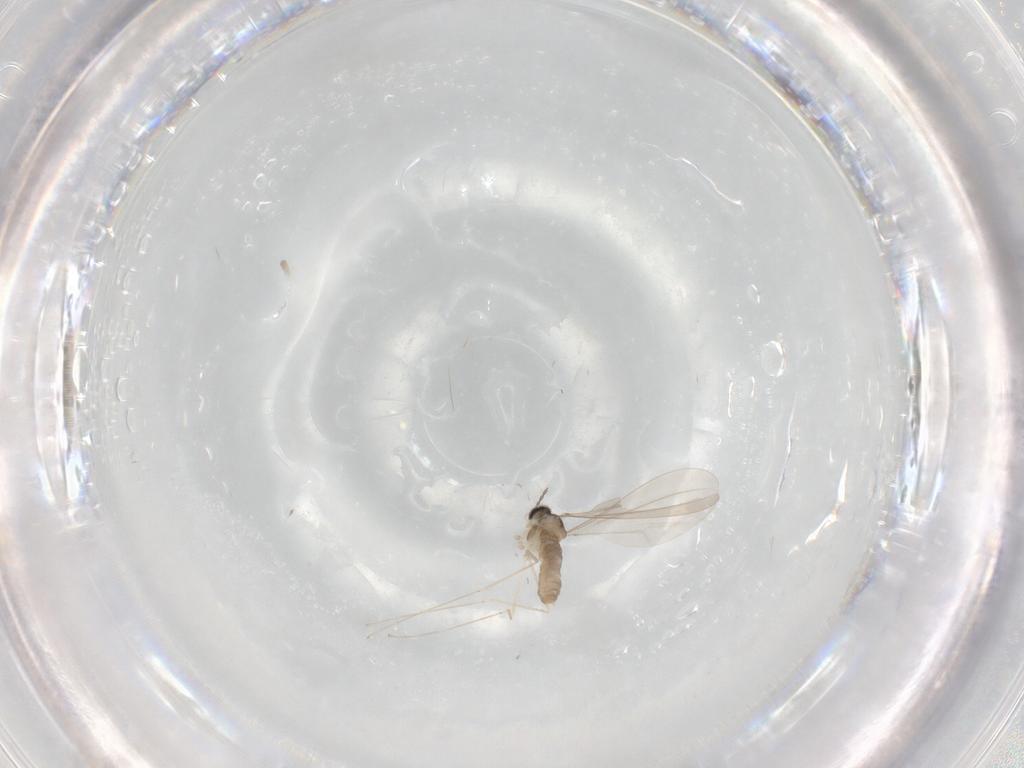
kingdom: Animalia
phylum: Arthropoda
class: Insecta
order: Diptera
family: Cecidomyiidae
